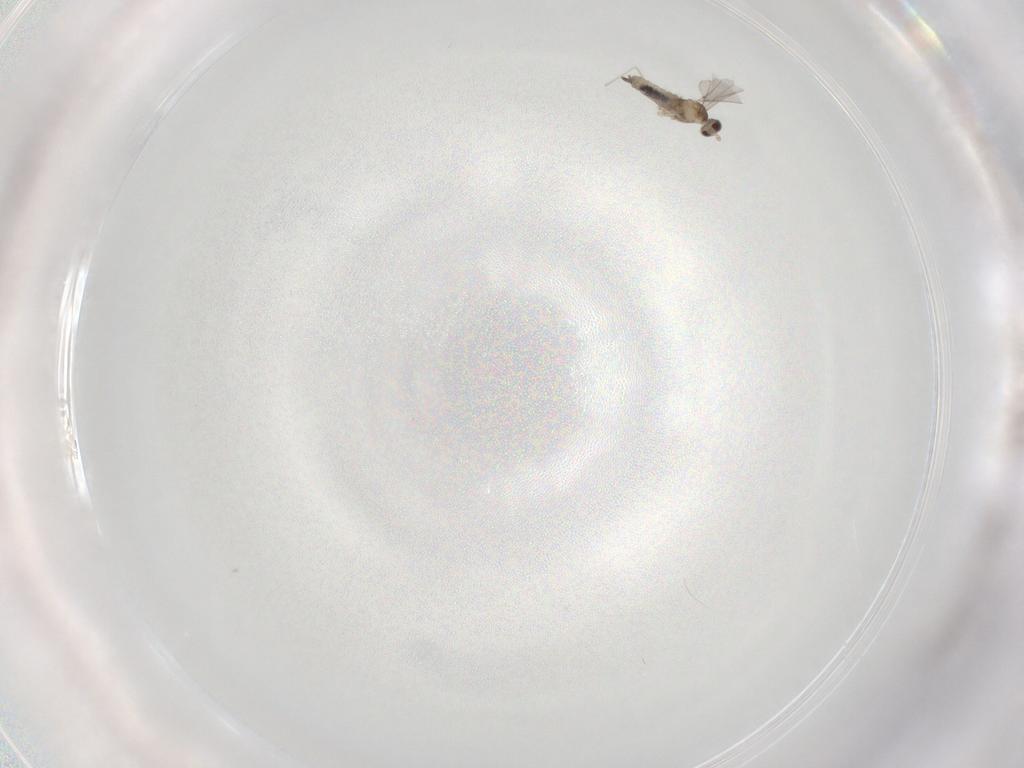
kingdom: Animalia
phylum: Arthropoda
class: Insecta
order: Diptera
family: Cecidomyiidae
